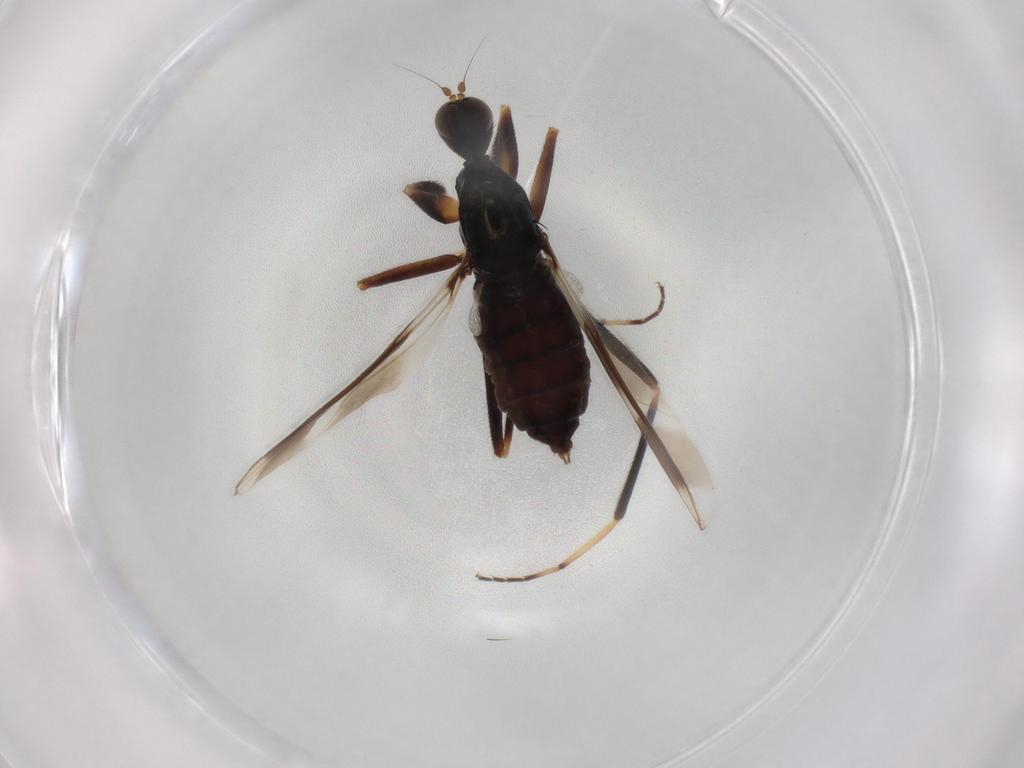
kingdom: Animalia
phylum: Arthropoda
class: Insecta
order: Diptera
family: Hybotidae
